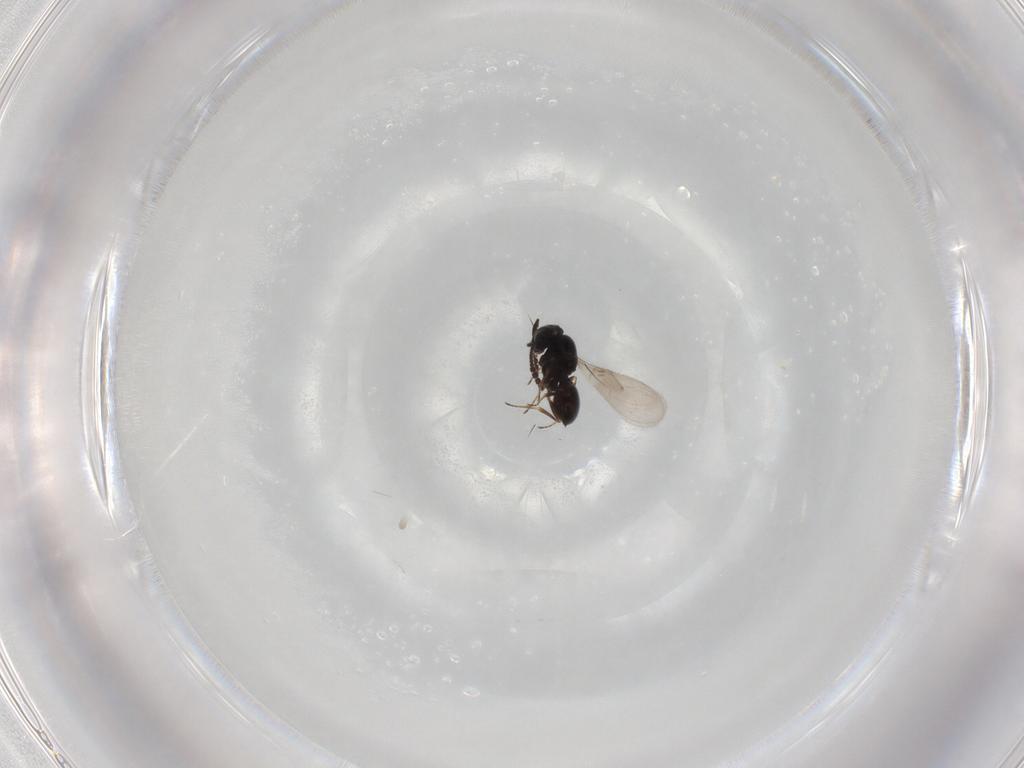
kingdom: Animalia
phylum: Arthropoda
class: Insecta
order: Hymenoptera
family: Scelionidae
